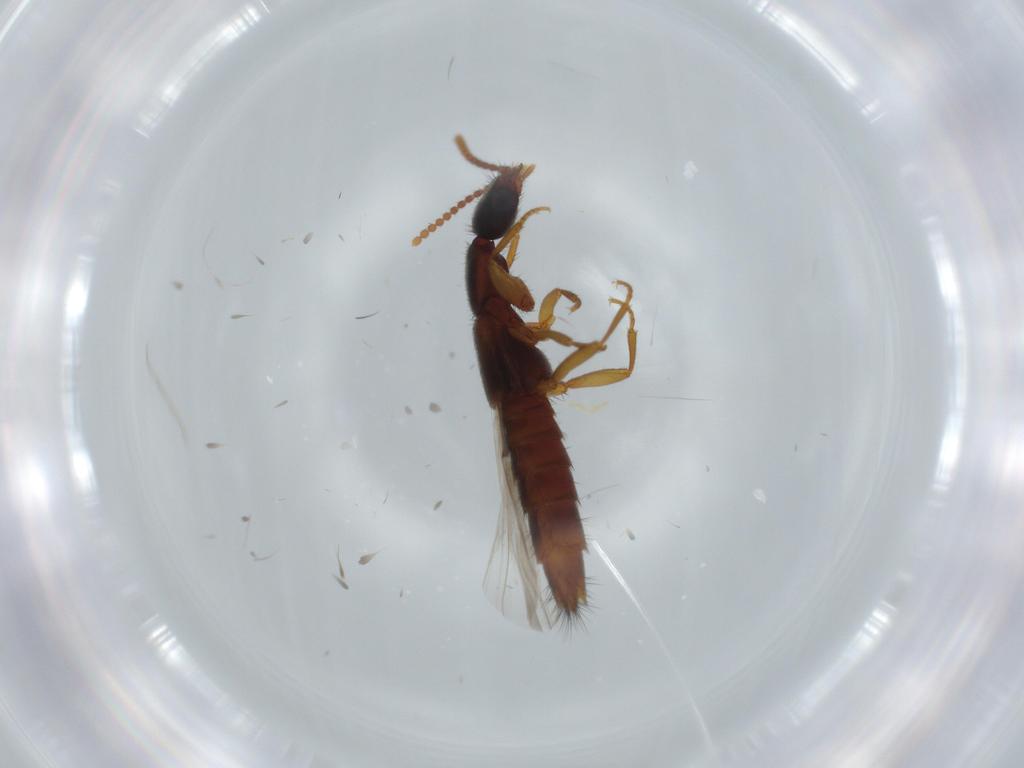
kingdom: Animalia
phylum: Arthropoda
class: Insecta
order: Coleoptera
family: Staphylinidae
